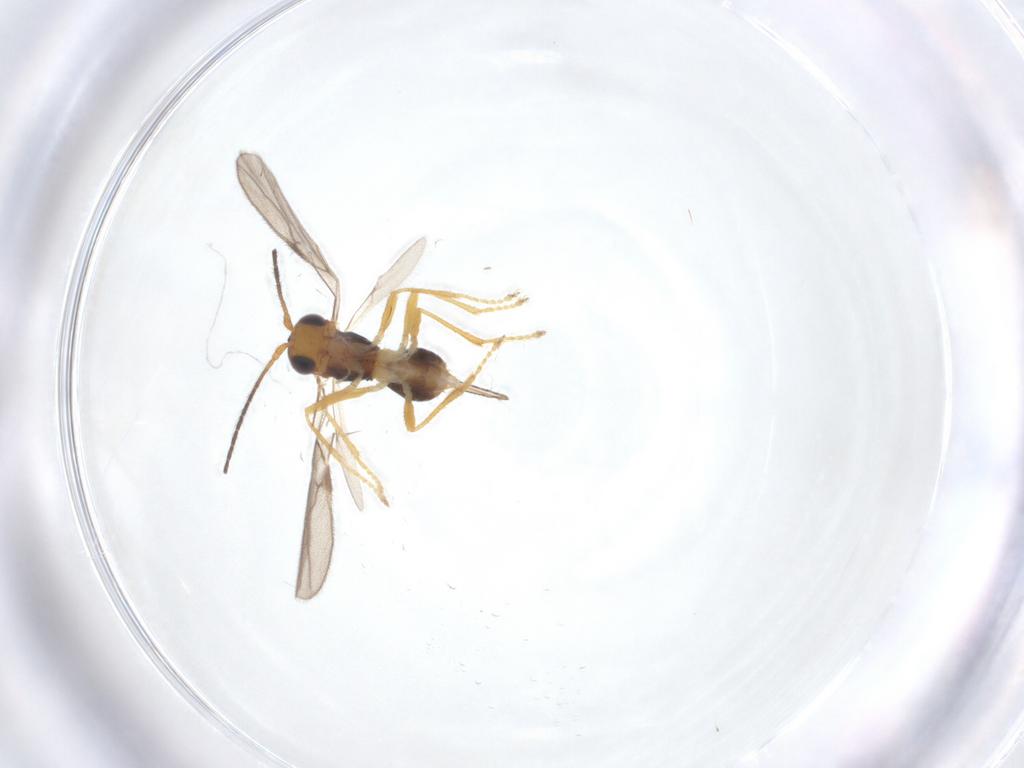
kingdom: Animalia
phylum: Arthropoda
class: Insecta
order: Hymenoptera
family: Braconidae
